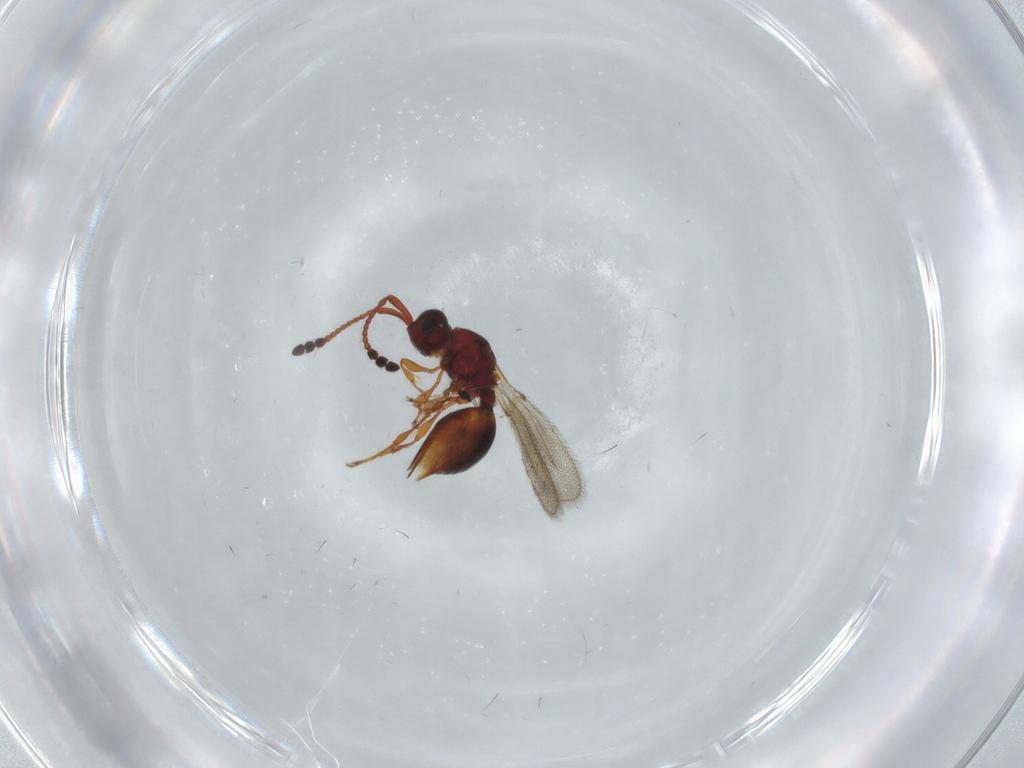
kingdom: Animalia
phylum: Arthropoda
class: Insecta
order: Hymenoptera
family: Diapriidae
